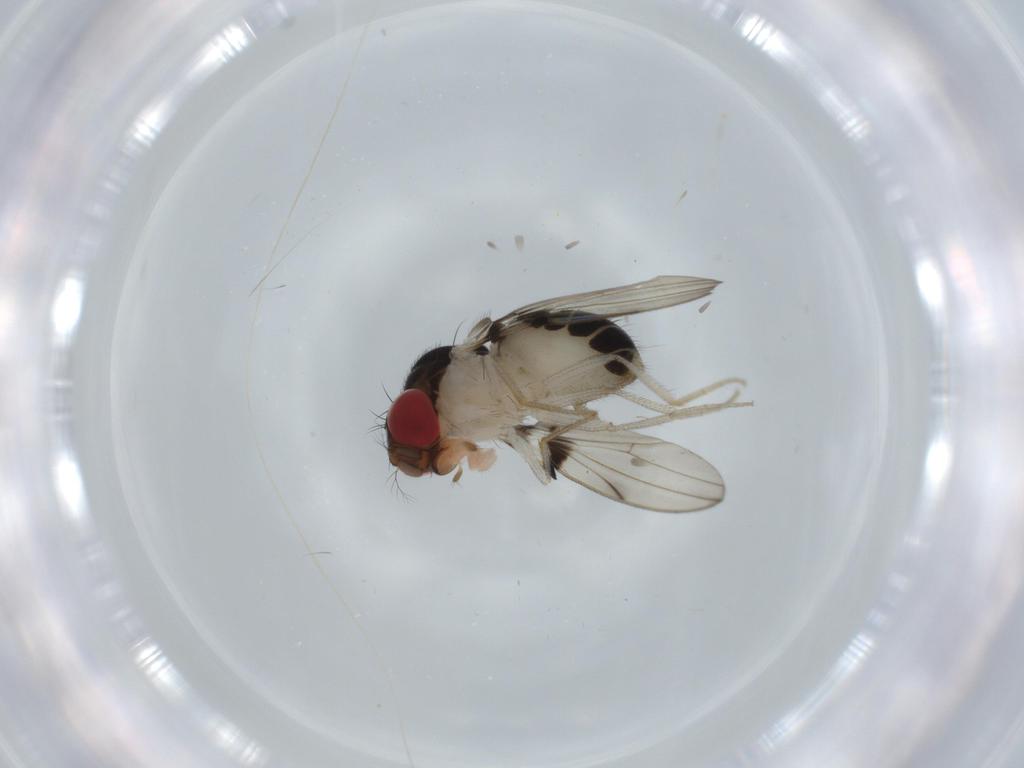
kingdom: Animalia
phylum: Arthropoda
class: Insecta
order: Diptera
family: Drosophilidae
